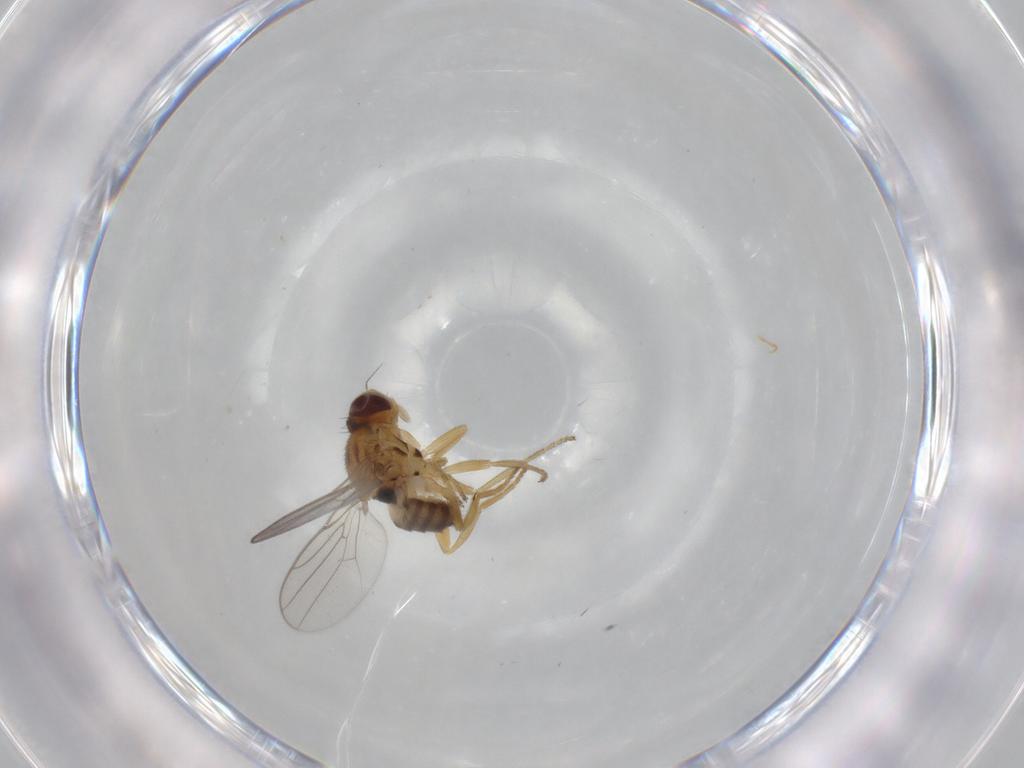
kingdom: Animalia
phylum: Arthropoda
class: Insecta
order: Diptera
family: Chloropidae
